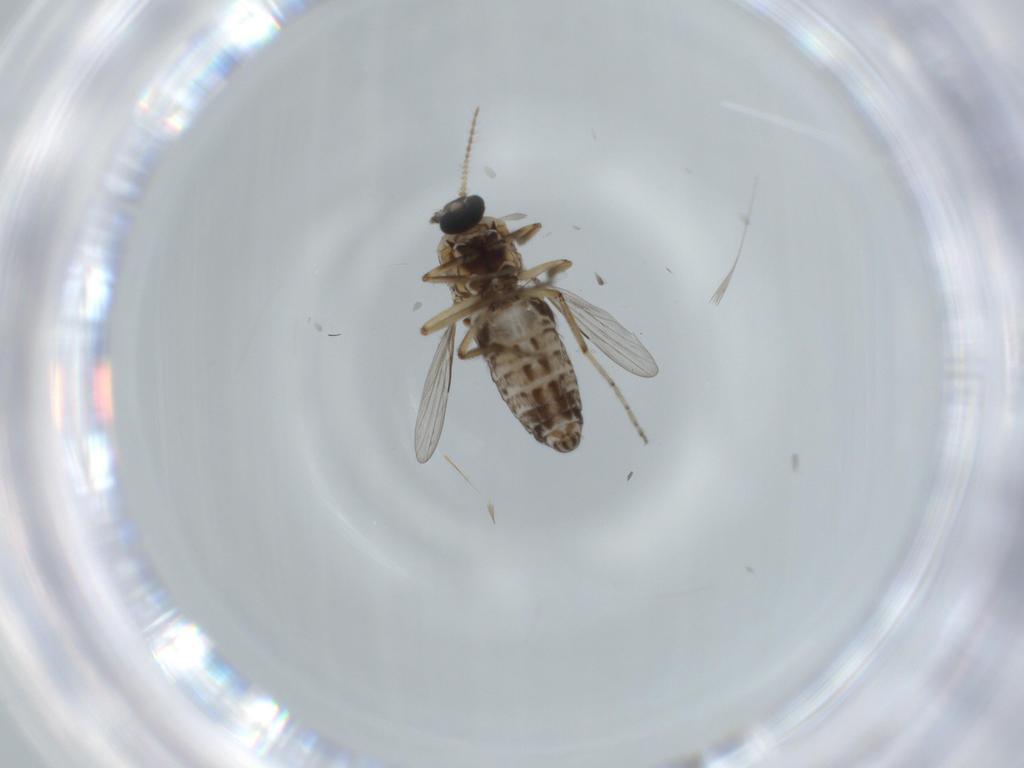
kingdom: Animalia
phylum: Arthropoda
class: Insecta
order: Diptera
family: Ceratopogonidae
